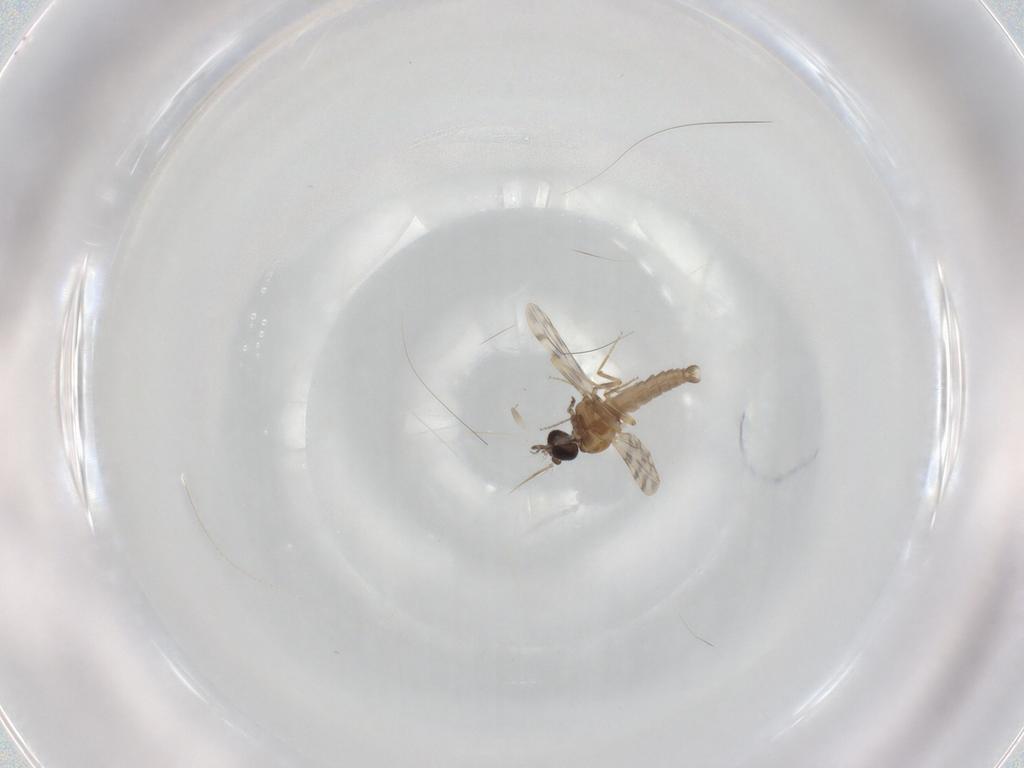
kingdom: Animalia
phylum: Arthropoda
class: Insecta
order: Diptera
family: Ceratopogonidae
